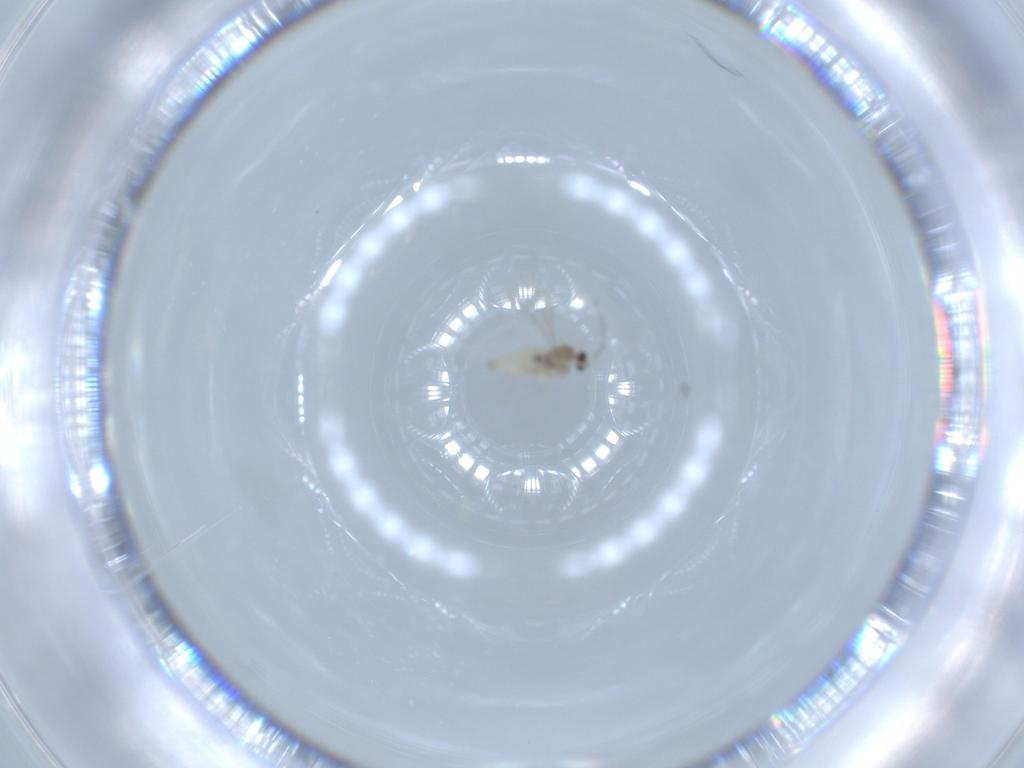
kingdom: Animalia
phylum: Arthropoda
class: Insecta
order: Diptera
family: Cecidomyiidae
